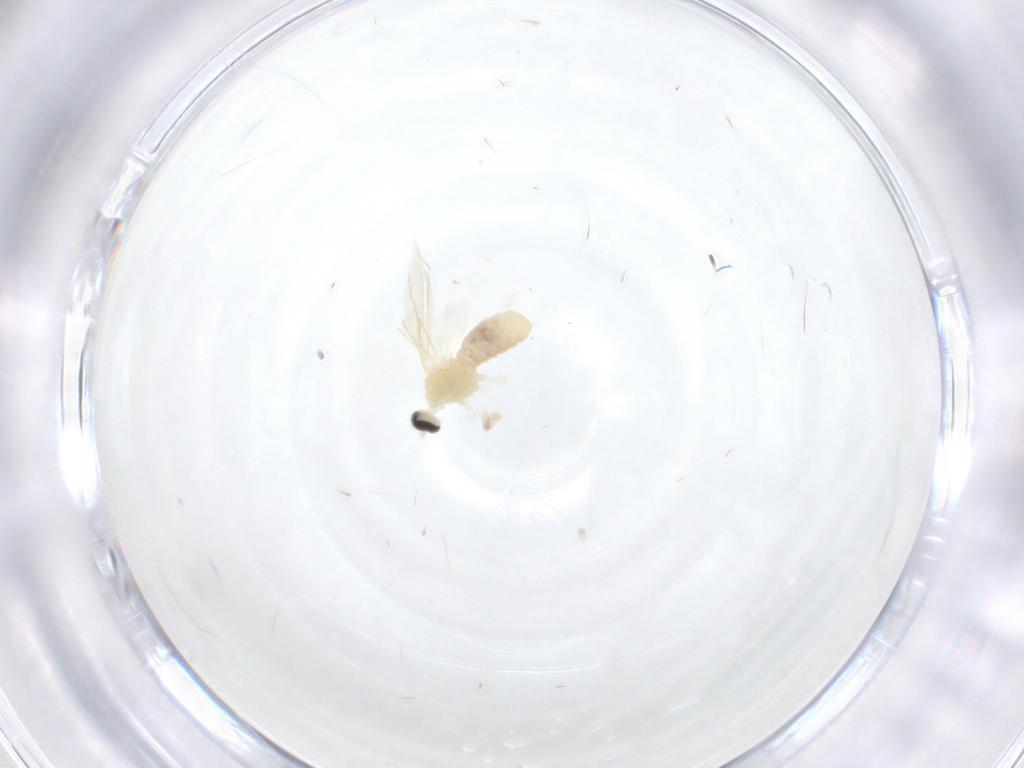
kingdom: Animalia
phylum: Arthropoda
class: Insecta
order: Diptera
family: Cecidomyiidae
